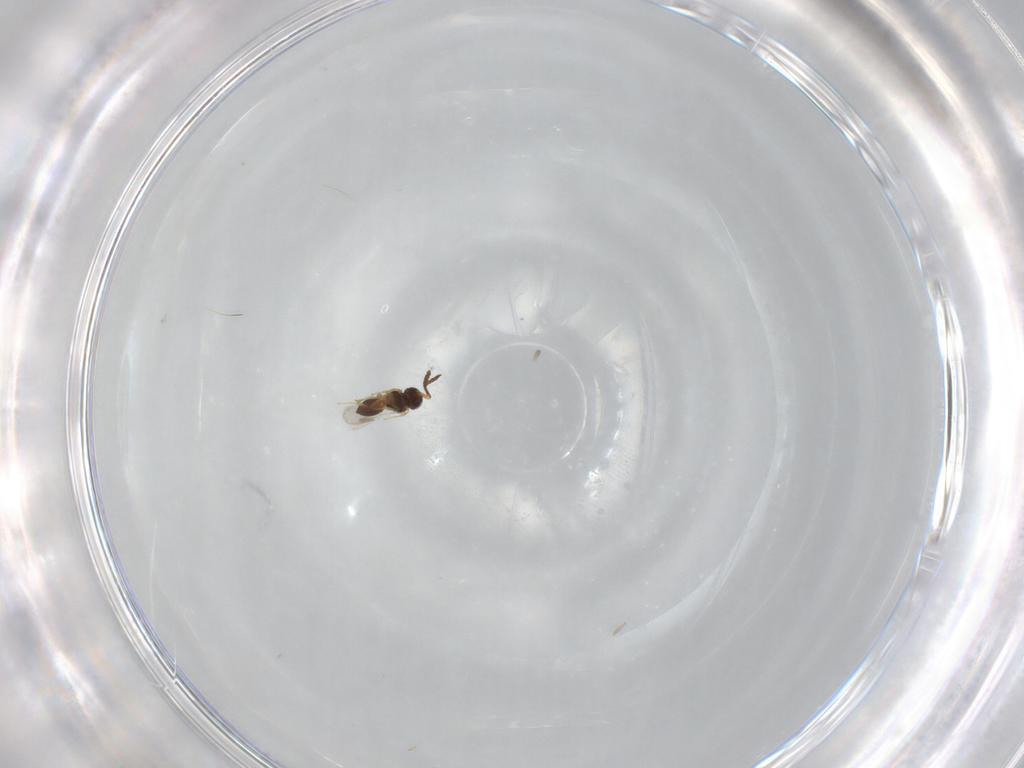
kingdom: Animalia
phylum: Arthropoda
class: Insecta
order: Hymenoptera
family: Scelionidae
